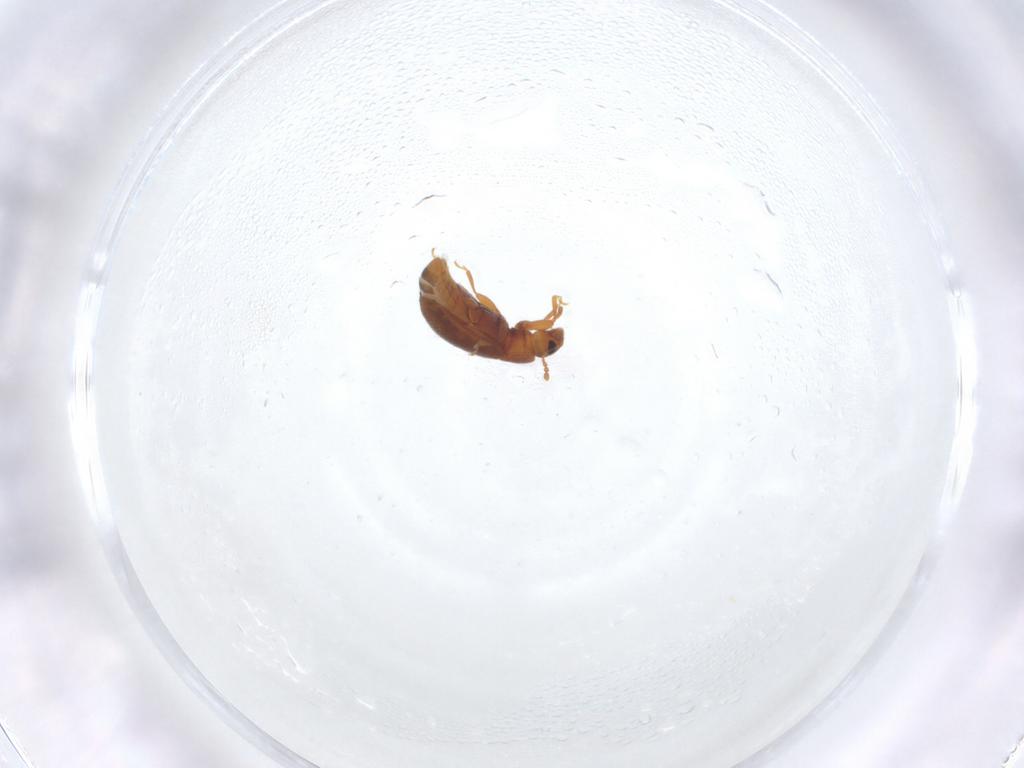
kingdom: Animalia
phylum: Arthropoda
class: Insecta
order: Coleoptera
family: Latridiidae
